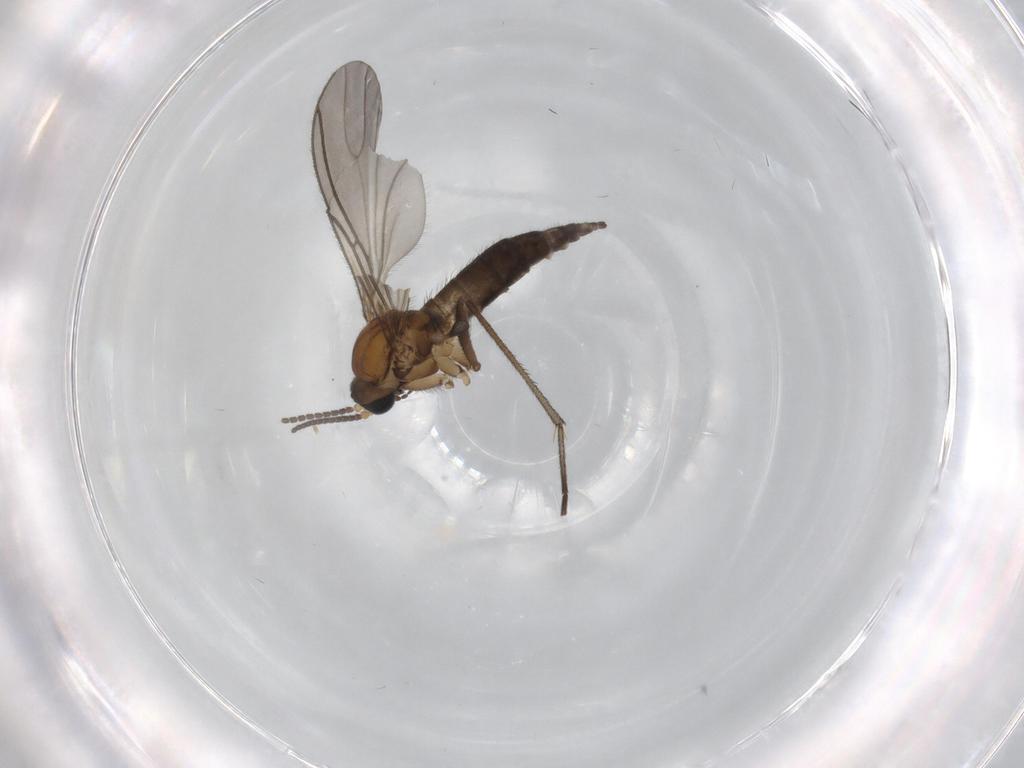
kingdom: Animalia
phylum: Arthropoda
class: Insecta
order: Diptera
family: Sciaridae
